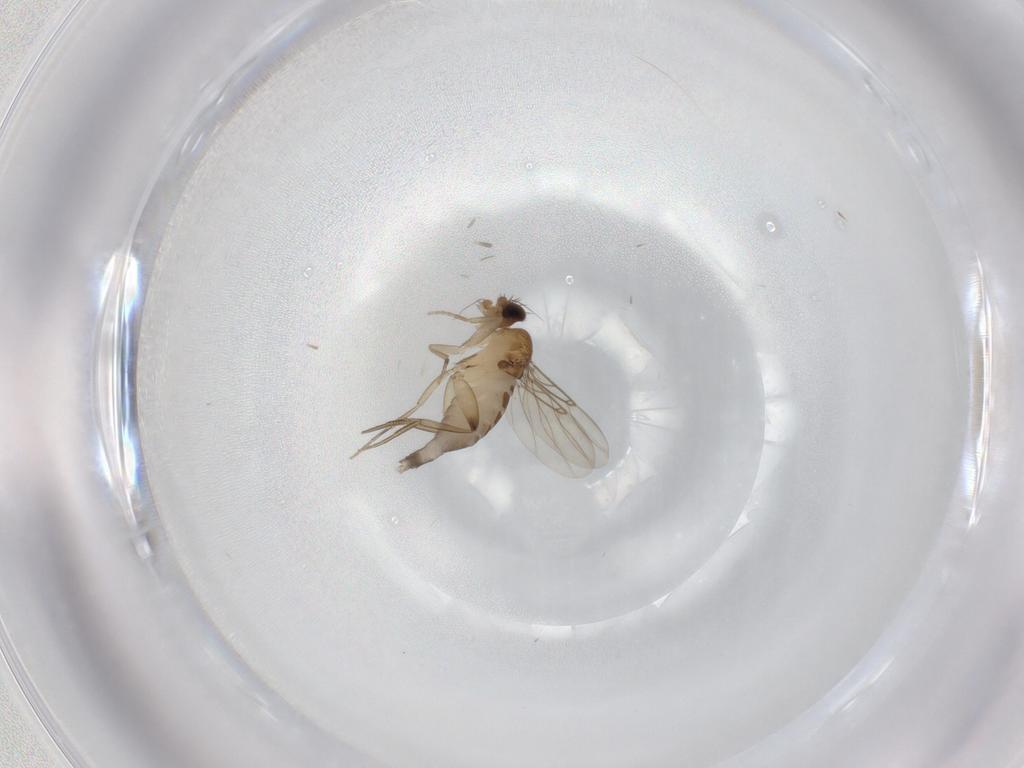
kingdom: Animalia
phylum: Arthropoda
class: Insecta
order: Diptera
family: Phoridae
